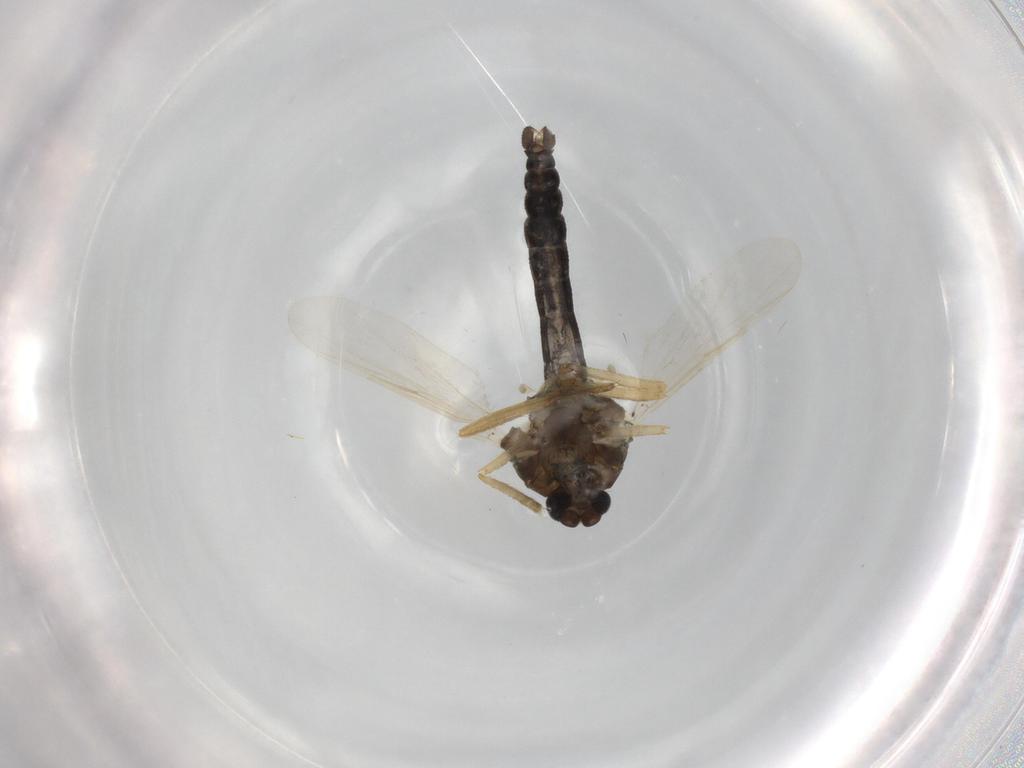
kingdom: Animalia
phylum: Arthropoda
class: Insecta
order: Diptera
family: Ceratopogonidae
